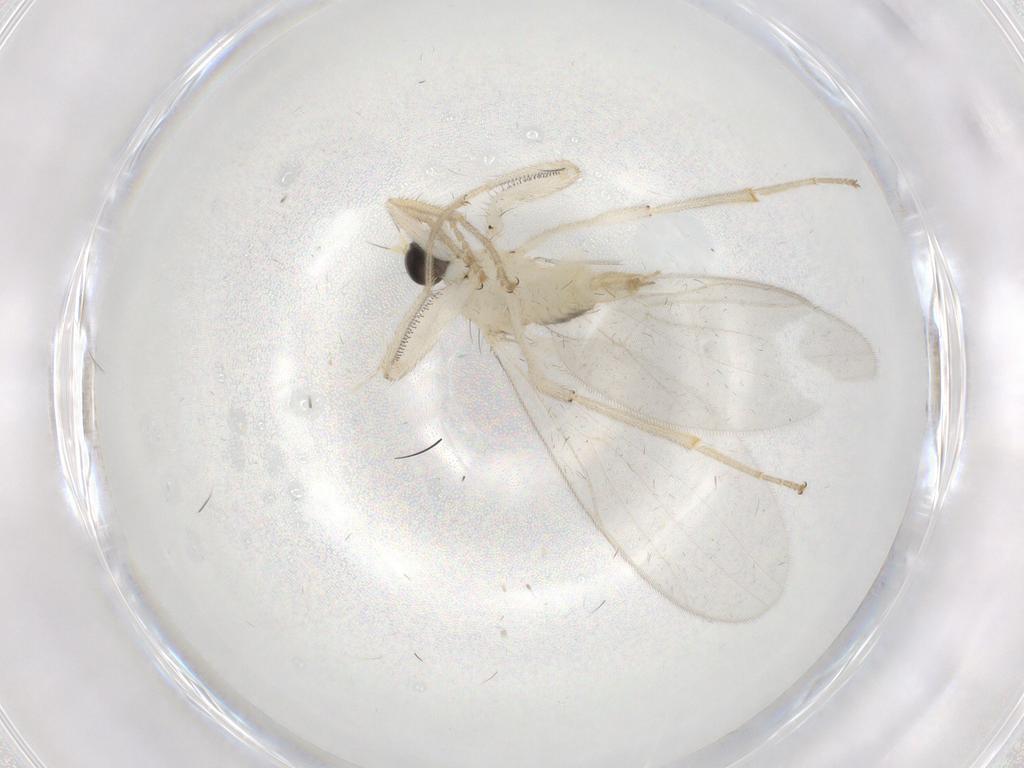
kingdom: Animalia
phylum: Arthropoda
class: Insecta
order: Diptera
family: Hybotidae
